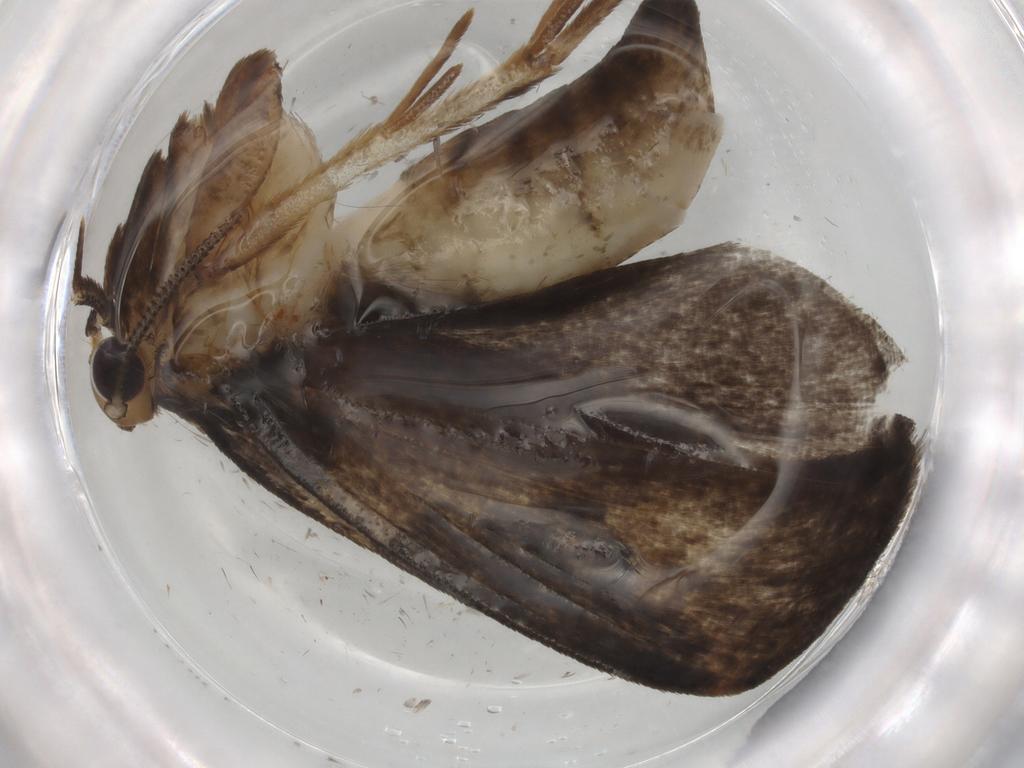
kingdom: Animalia
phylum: Arthropoda
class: Insecta
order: Lepidoptera
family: Tineidae
